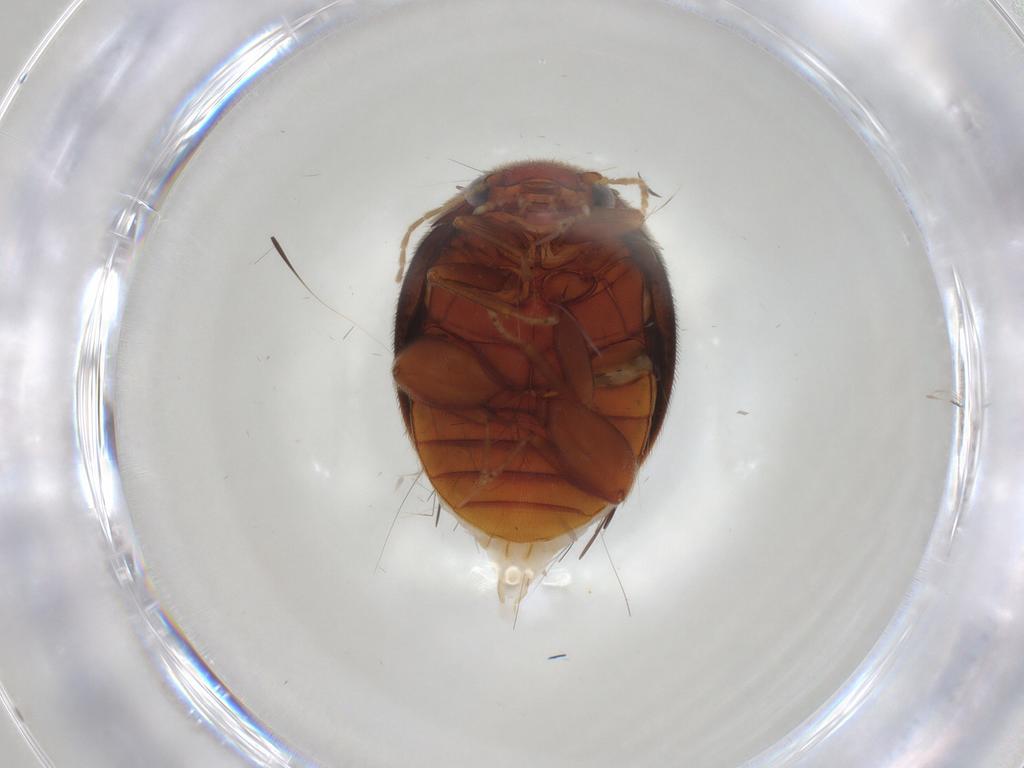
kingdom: Animalia
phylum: Arthropoda
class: Insecta
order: Coleoptera
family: Scirtidae
